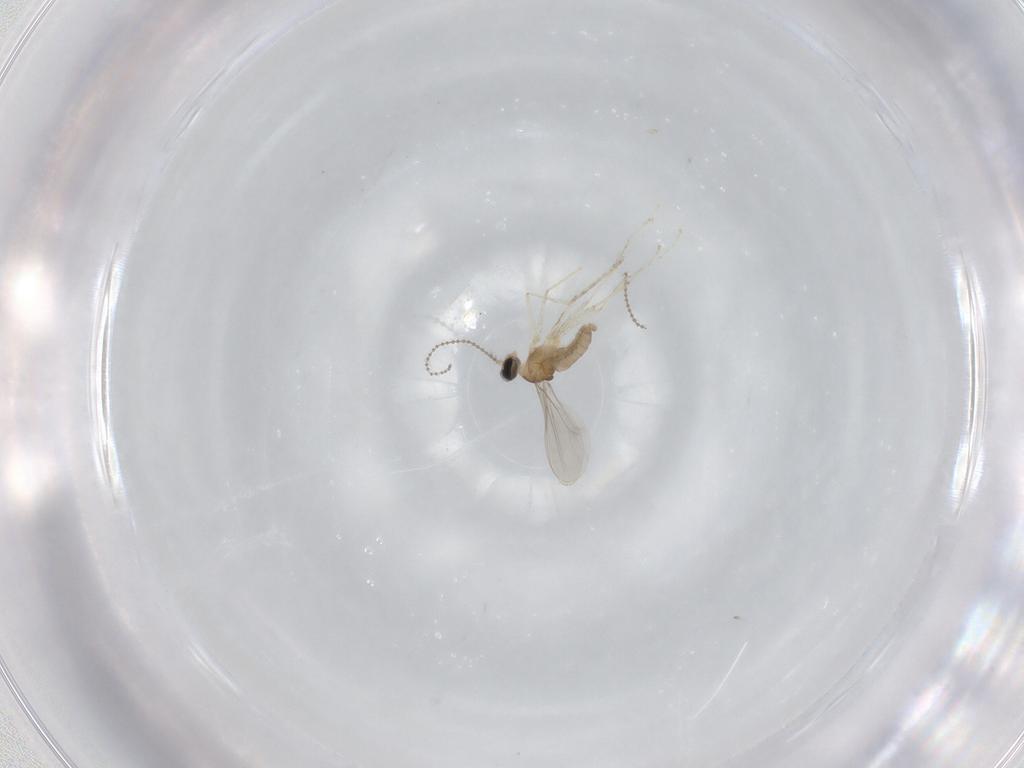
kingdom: Animalia
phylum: Arthropoda
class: Insecta
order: Diptera
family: Cecidomyiidae
